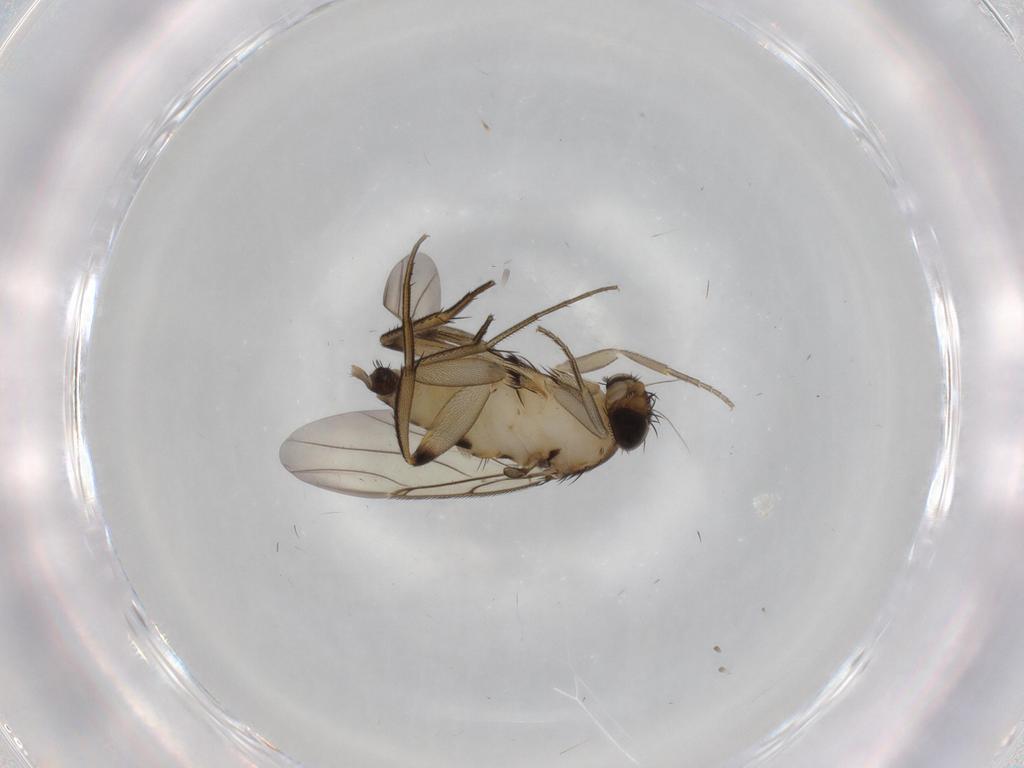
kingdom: Animalia
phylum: Arthropoda
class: Insecta
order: Diptera
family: Phoridae
